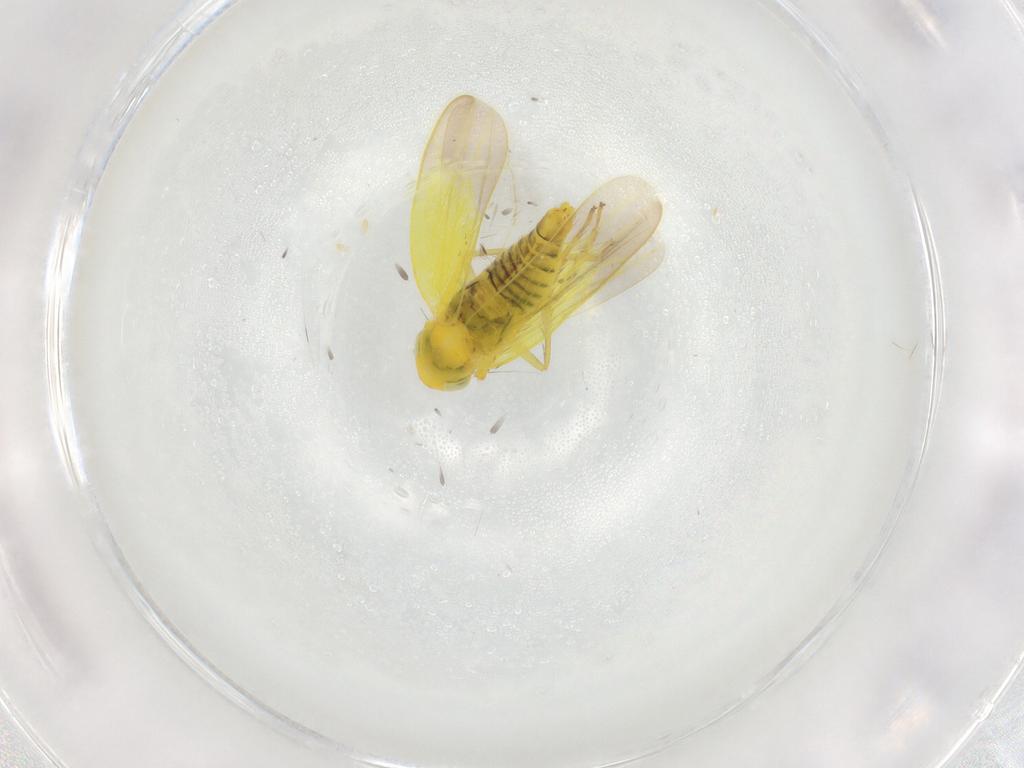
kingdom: Animalia
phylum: Arthropoda
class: Insecta
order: Hemiptera
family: Cicadellidae
